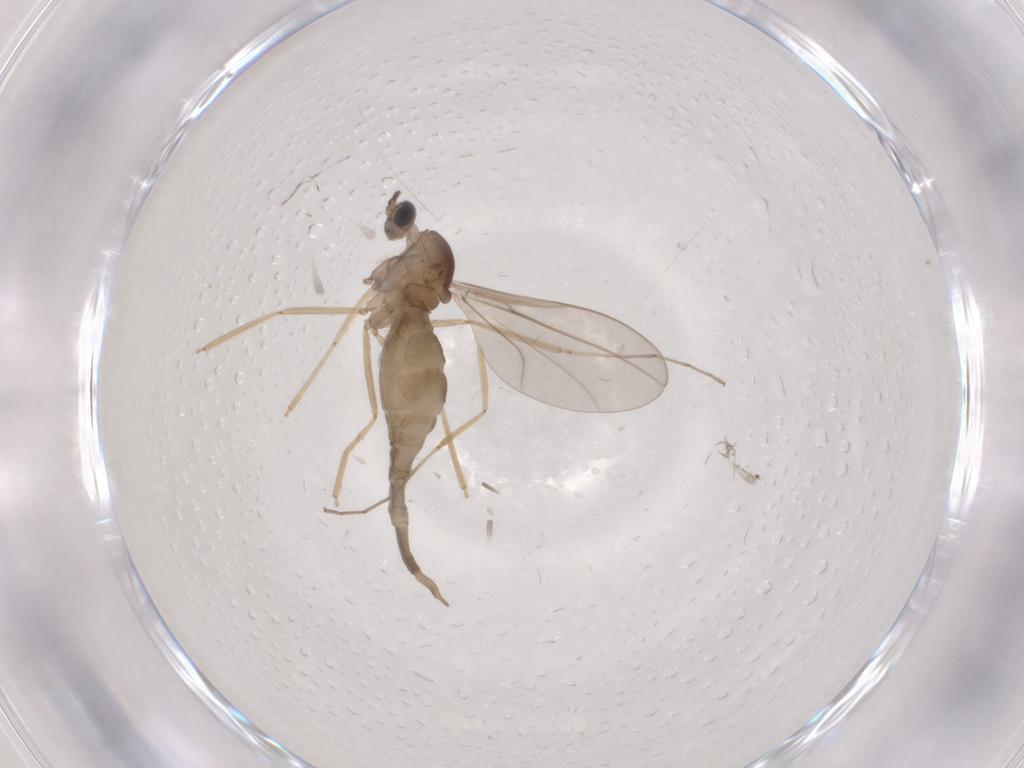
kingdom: Animalia
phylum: Arthropoda
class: Insecta
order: Diptera
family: Cecidomyiidae
